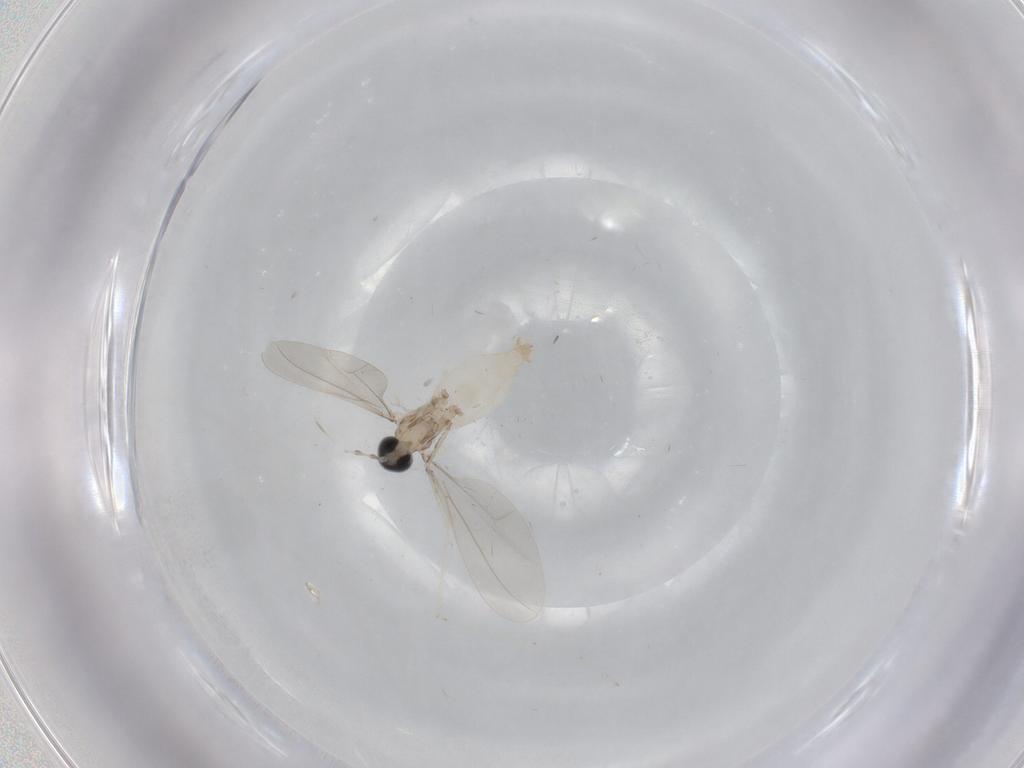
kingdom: Animalia
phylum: Arthropoda
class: Insecta
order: Diptera
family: Cecidomyiidae
